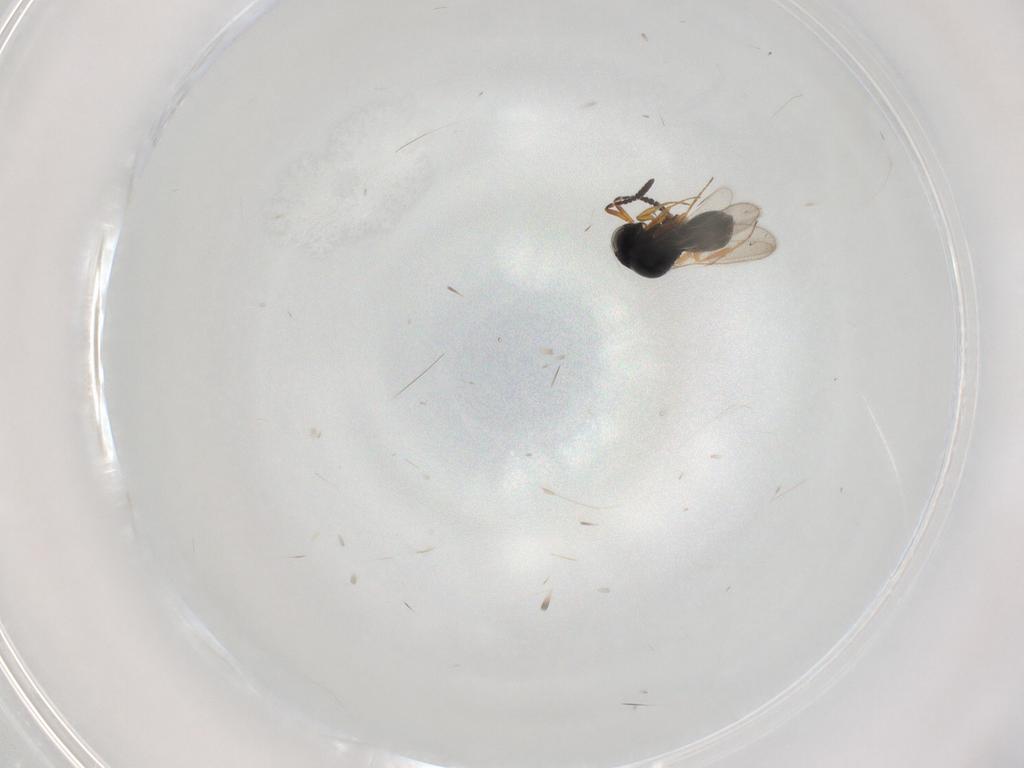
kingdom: Animalia
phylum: Arthropoda
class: Insecta
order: Hymenoptera
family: Scelionidae
